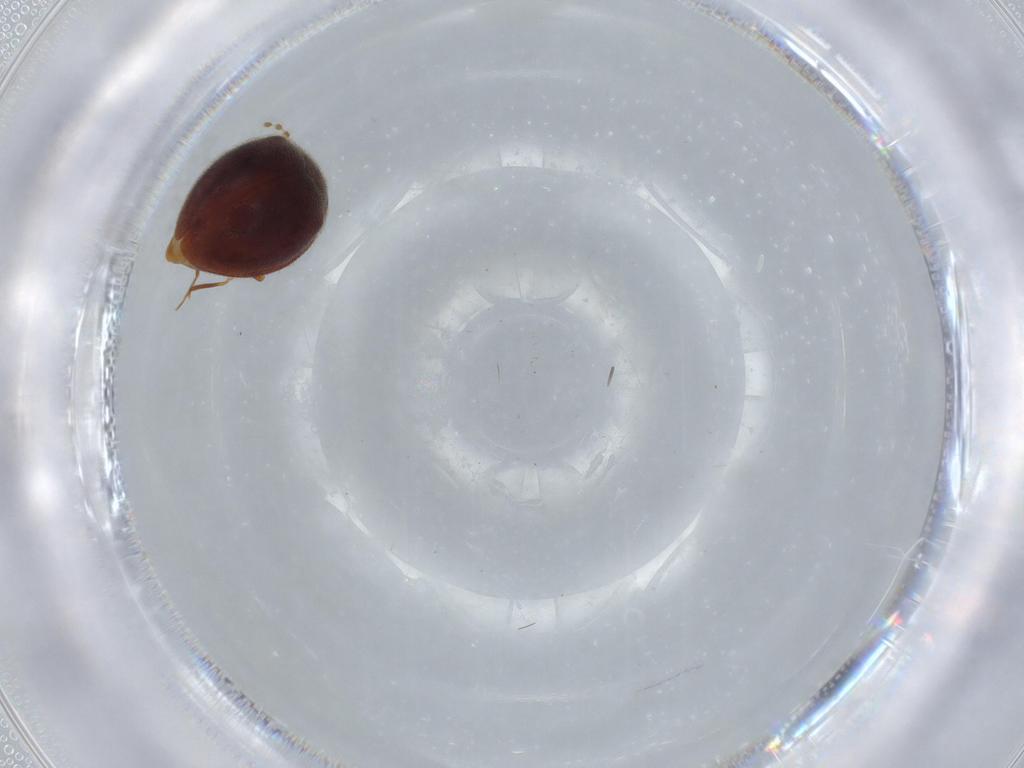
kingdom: Animalia
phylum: Arthropoda
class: Insecta
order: Coleoptera
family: Anamorphidae
